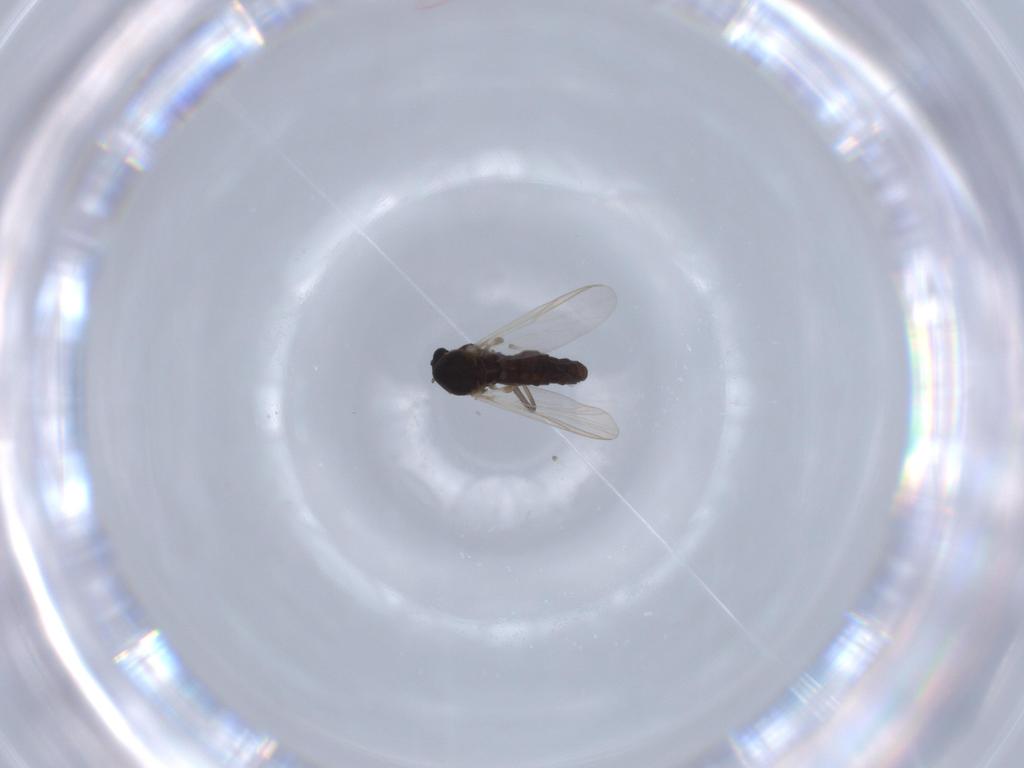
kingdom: Animalia
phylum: Arthropoda
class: Insecta
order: Diptera
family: Chironomidae
